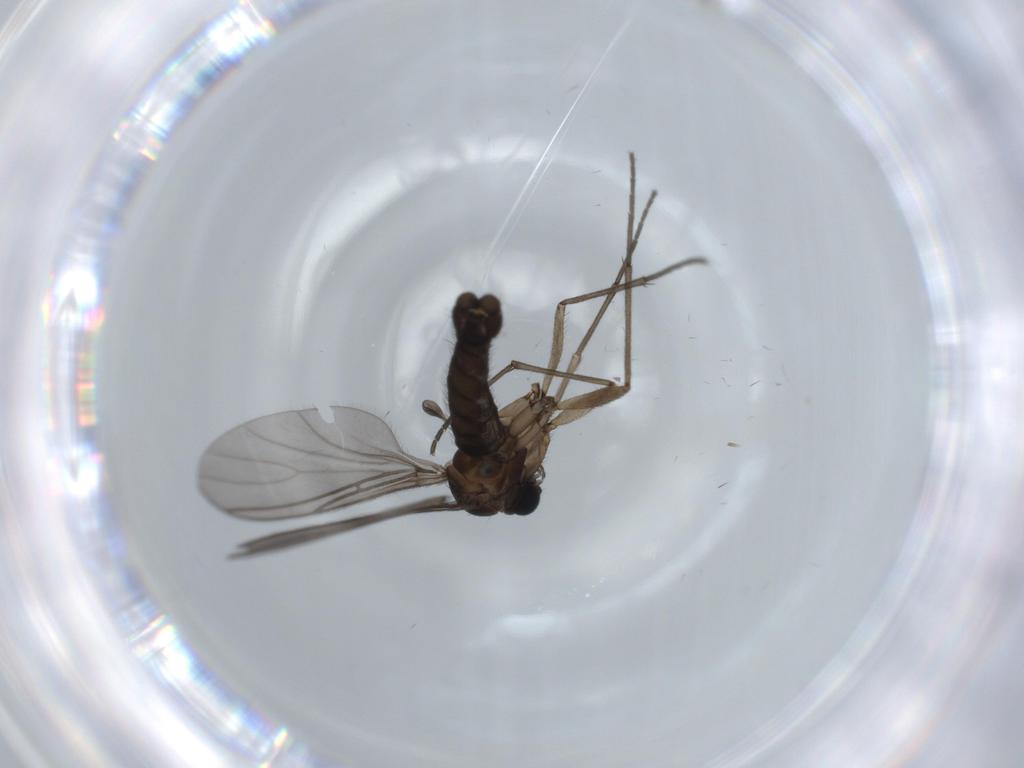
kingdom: Animalia
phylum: Arthropoda
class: Insecta
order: Diptera
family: Sciaridae
